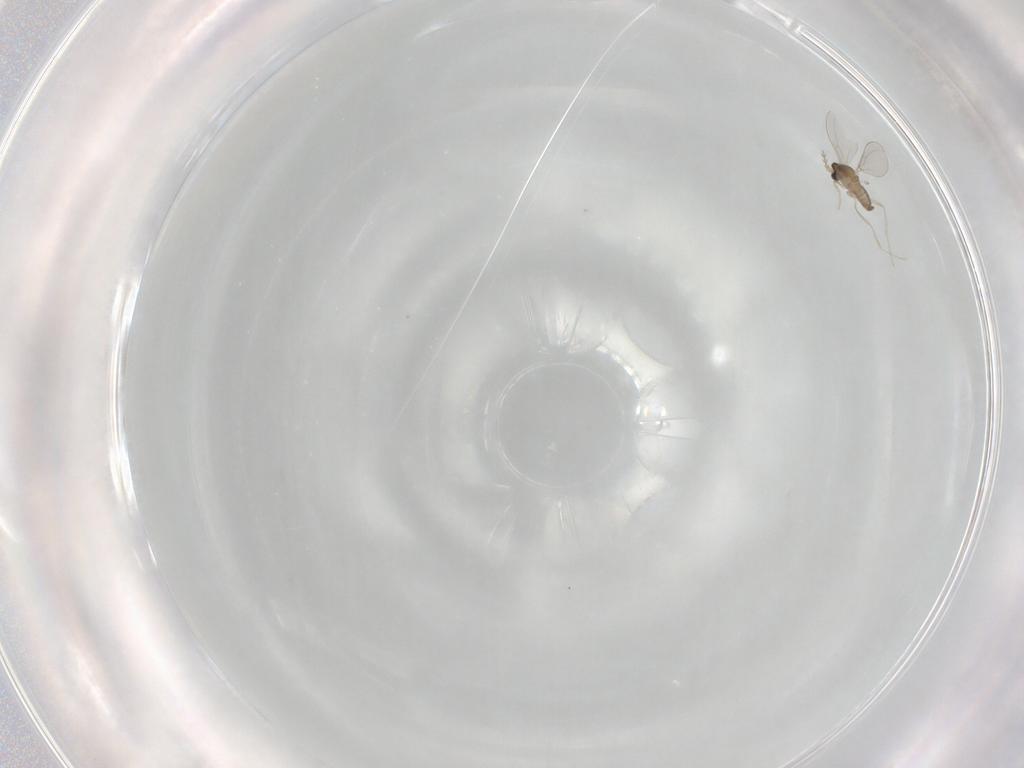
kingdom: Animalia
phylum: Arthropoda
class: Insecta
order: Diptera
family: Cecidomyiidae
